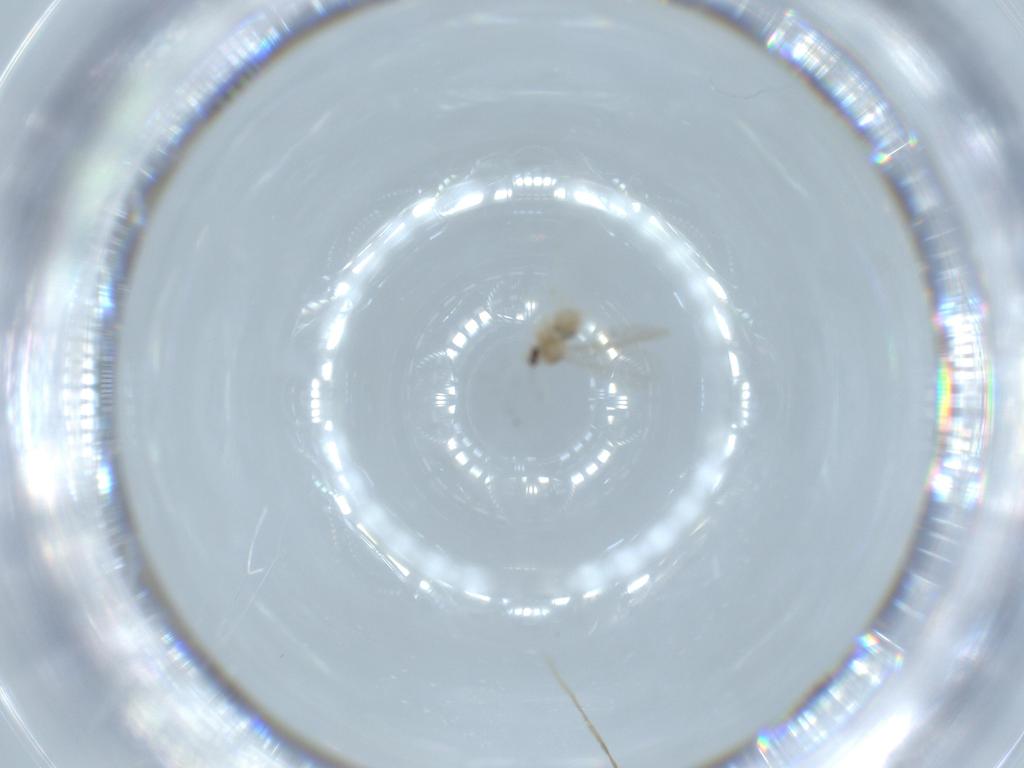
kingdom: Animalia
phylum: Arthropoda
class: Insecta
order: Diptera
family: Cecidomyiidae
